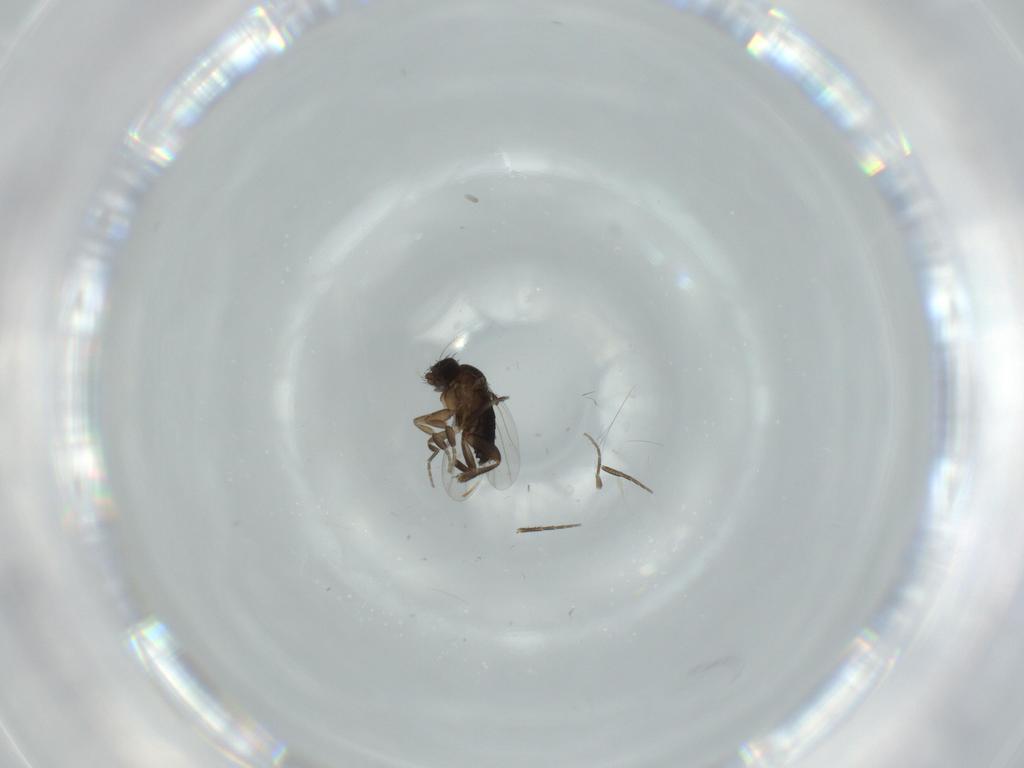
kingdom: Animalia
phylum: Arthropoda
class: Insecta
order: Diptera
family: Phoridae
